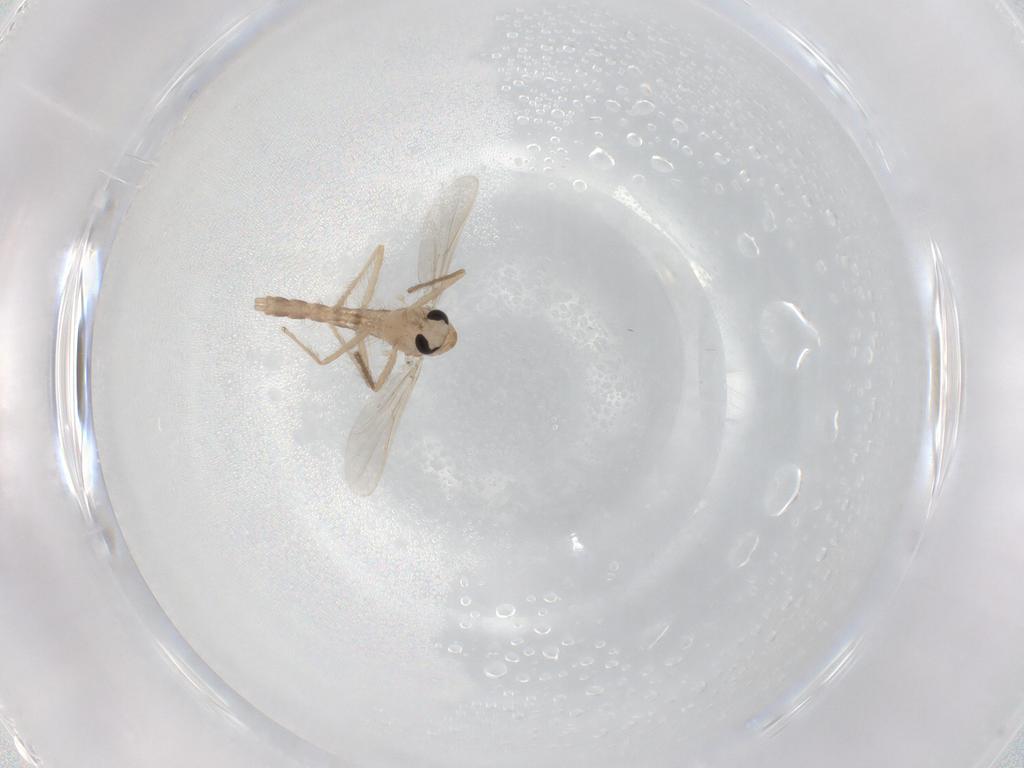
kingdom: Animalia
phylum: Arthropoda
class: Insecta
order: Diptera
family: Chironomidae
